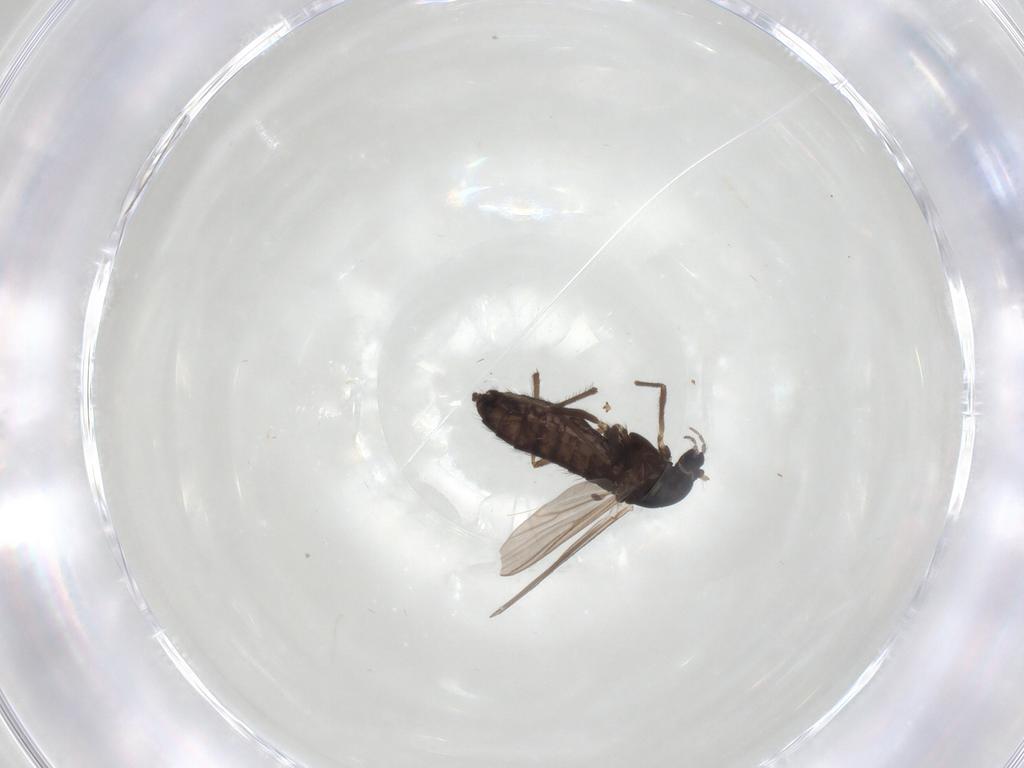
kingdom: Animalia
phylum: Arthropoda
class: Insecta
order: Diptera
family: Chironomidae
